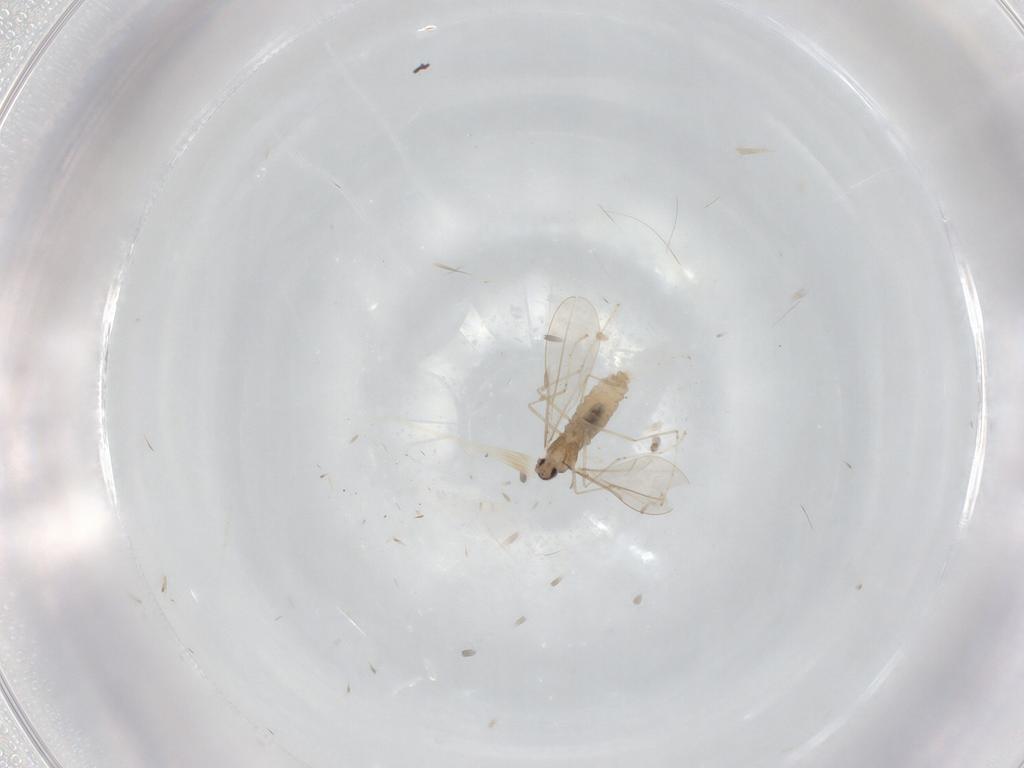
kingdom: Animalia
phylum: Arthropoda
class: Insecta
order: Diptera
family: Cecidomyiidae
